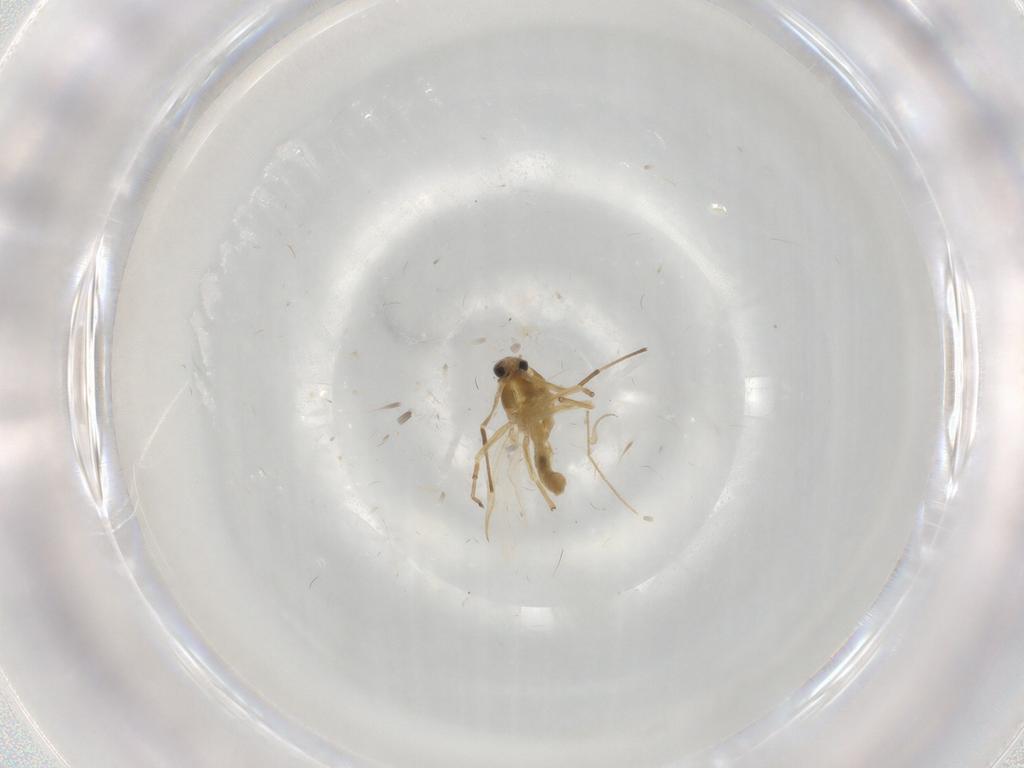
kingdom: Animalia
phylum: Arthropoda
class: Insecta
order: Diptera
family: Chironomidae
